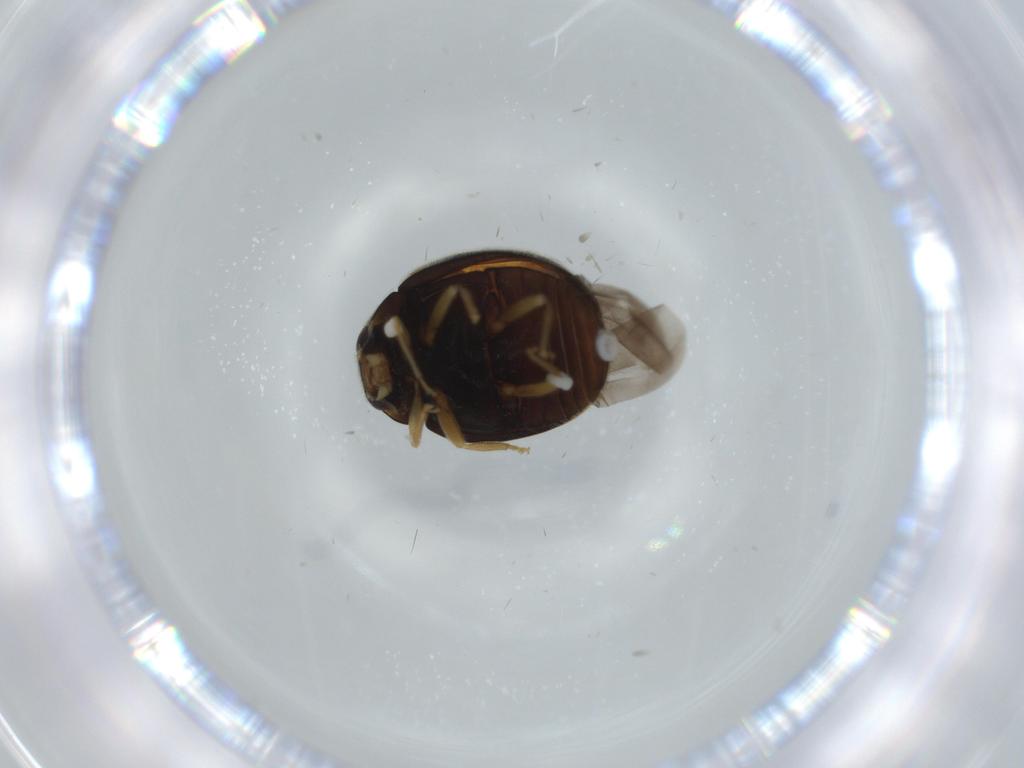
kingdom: Animalia
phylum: Arthropoda
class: Insecta
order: Coleoptera
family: Coccinellidae
